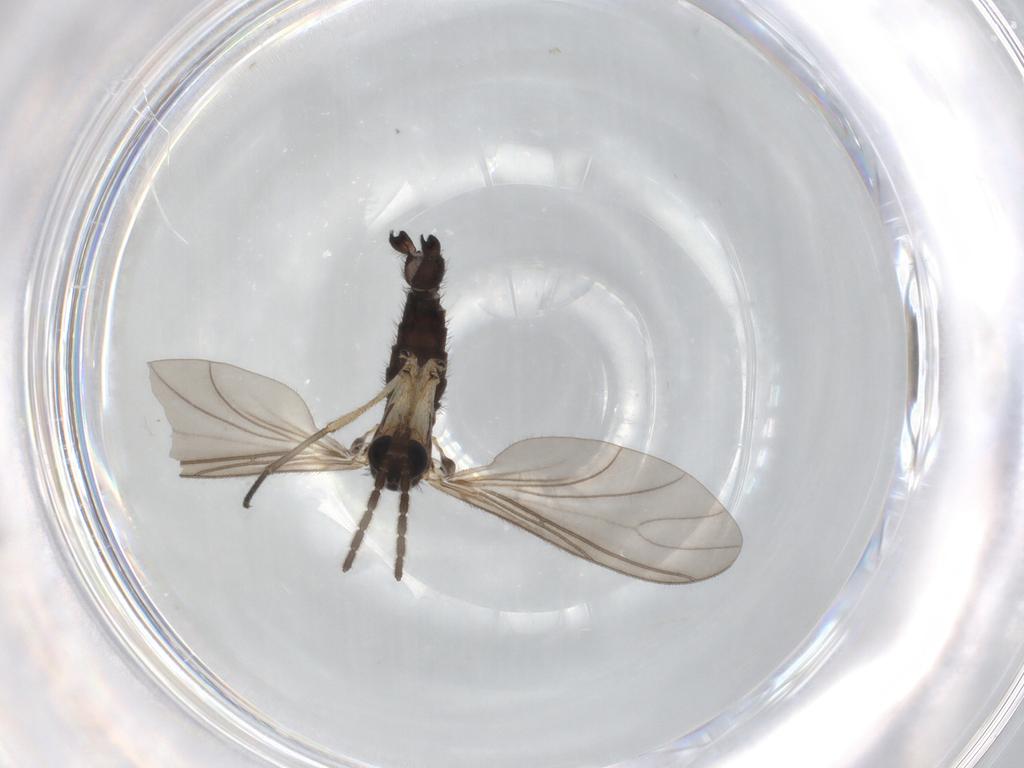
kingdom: Animalia
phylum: Arthropoda
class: Insecta
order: Diptera
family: Sciaridae
